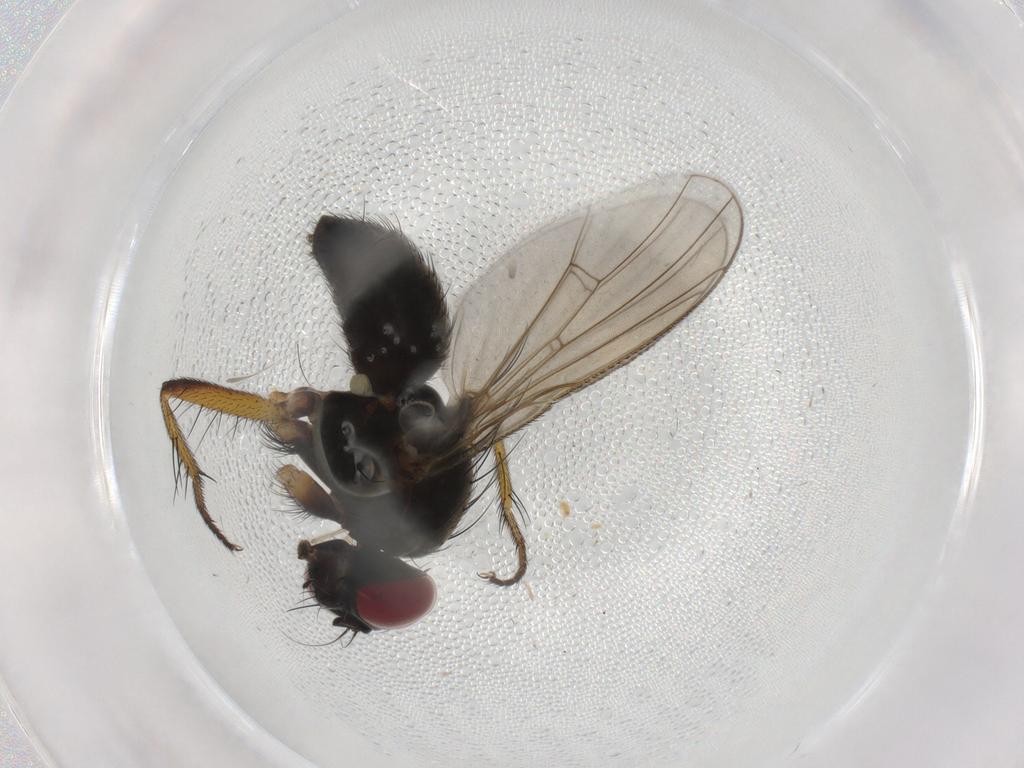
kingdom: Animalia
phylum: Arthropoda
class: Insecta
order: Diptera
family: Muscidae
